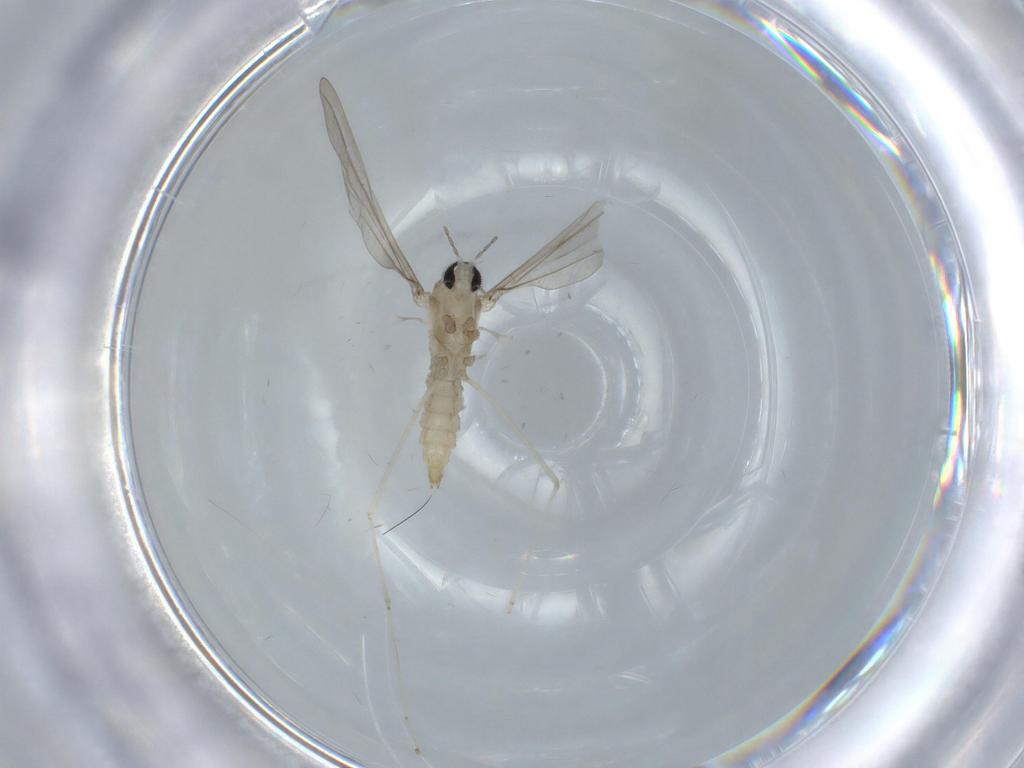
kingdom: Animalia
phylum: Arthropoda
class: Insecta
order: Diptera
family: Cecidomyiidae
